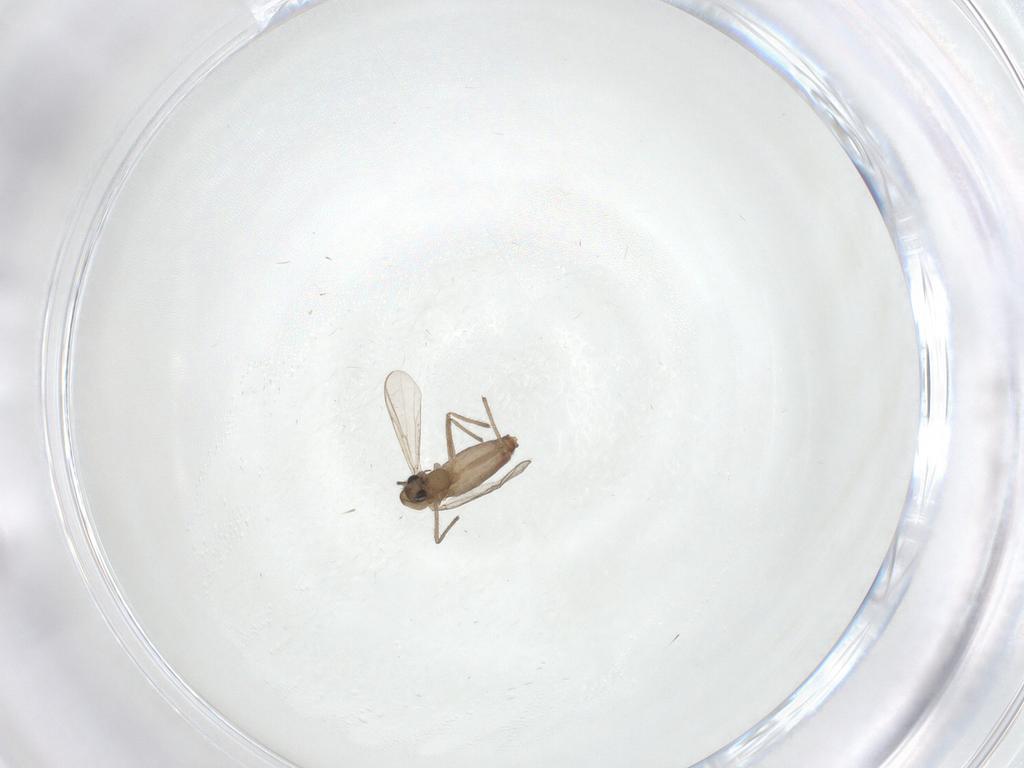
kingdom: Animalia
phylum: Arthropoda
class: Insecta
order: Diptera
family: Chironomidae
